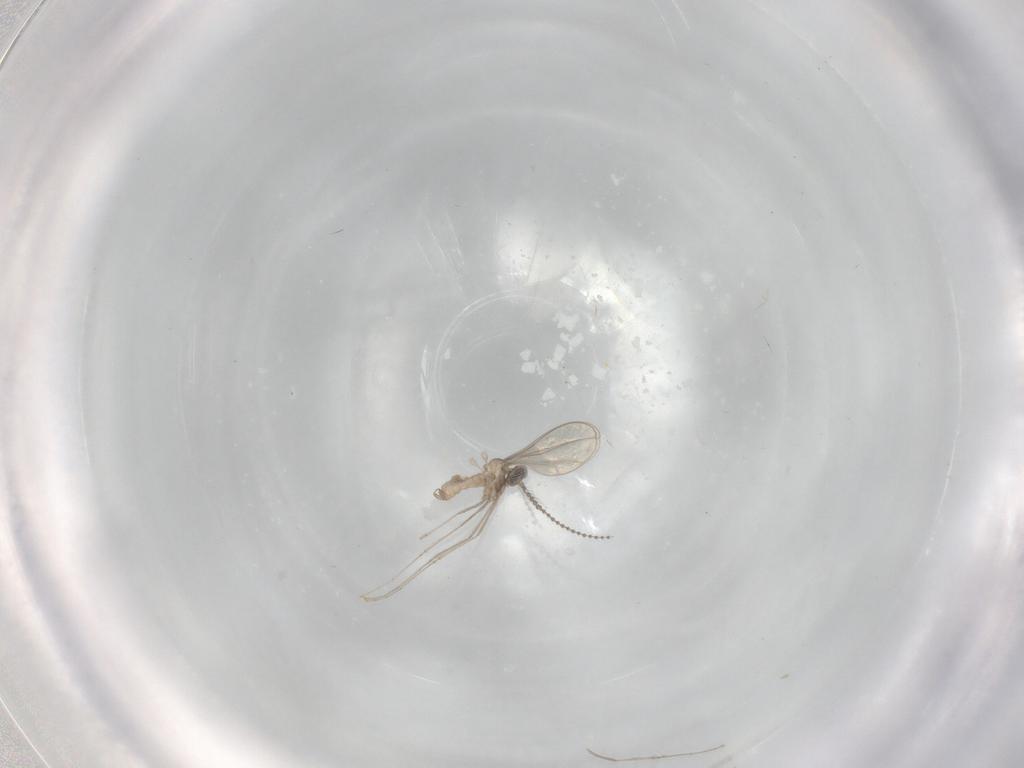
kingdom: Animalia
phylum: Arthropoda
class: Insecta
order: Diptera
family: Cecidomyiidae
